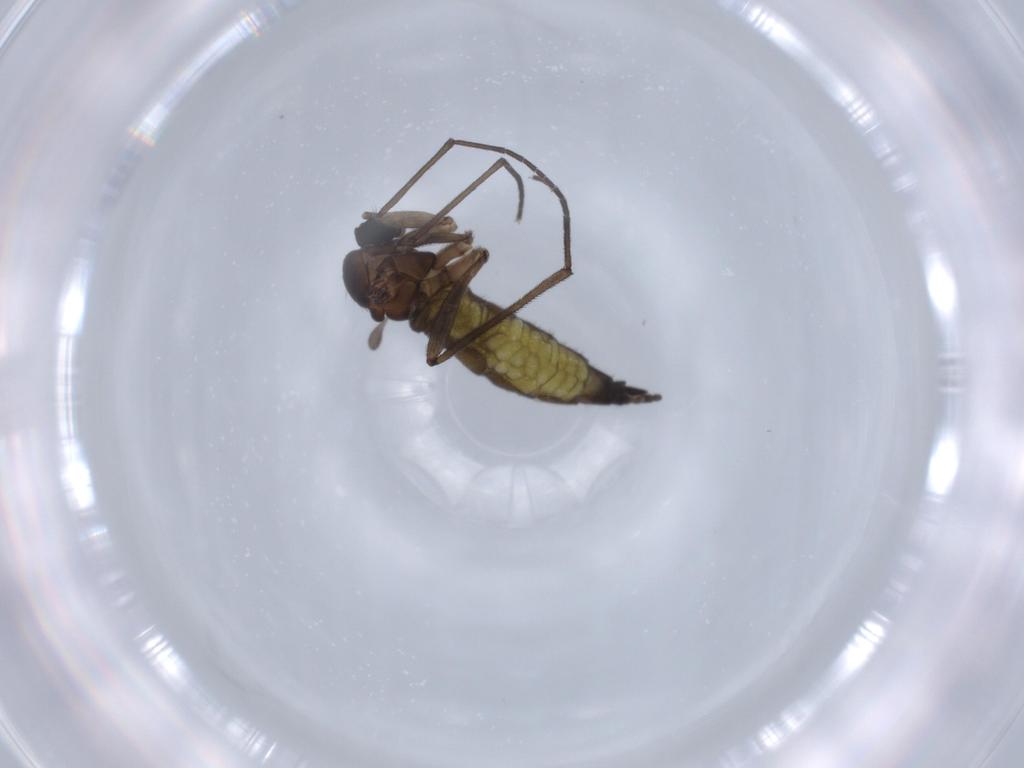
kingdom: Animalia
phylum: Arthropoda
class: Insecta
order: Diptera
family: Sciaridae
